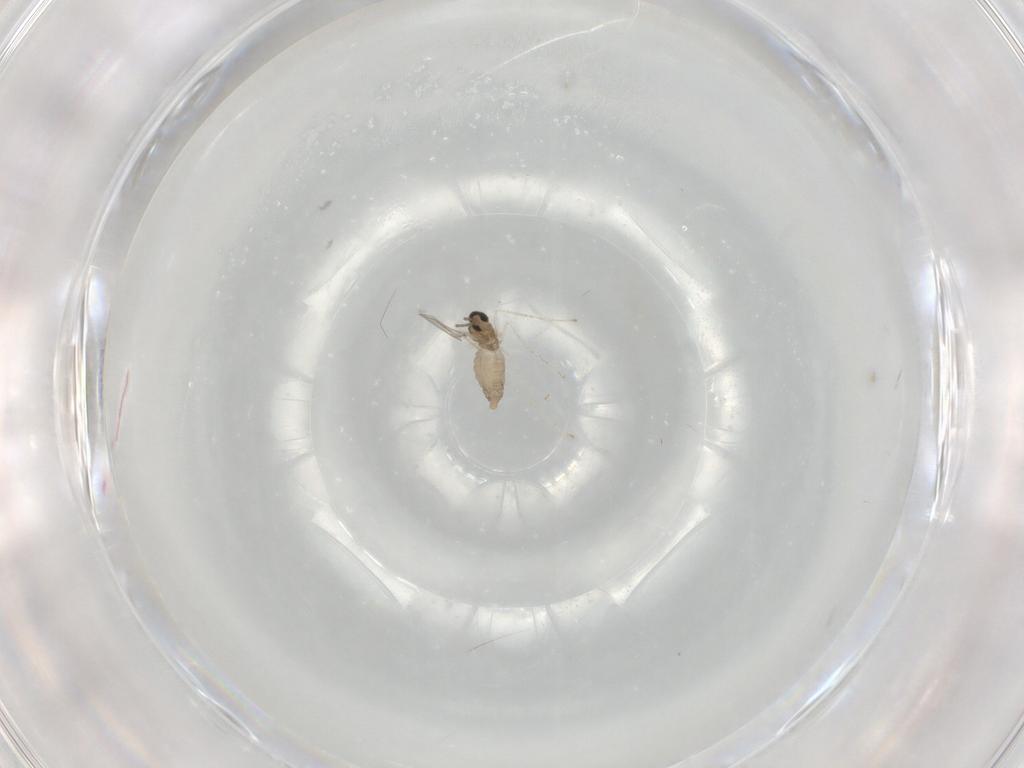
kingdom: Animalia
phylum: Arthropoda
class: Insecta
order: Diptera
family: Cecidomyiidae
